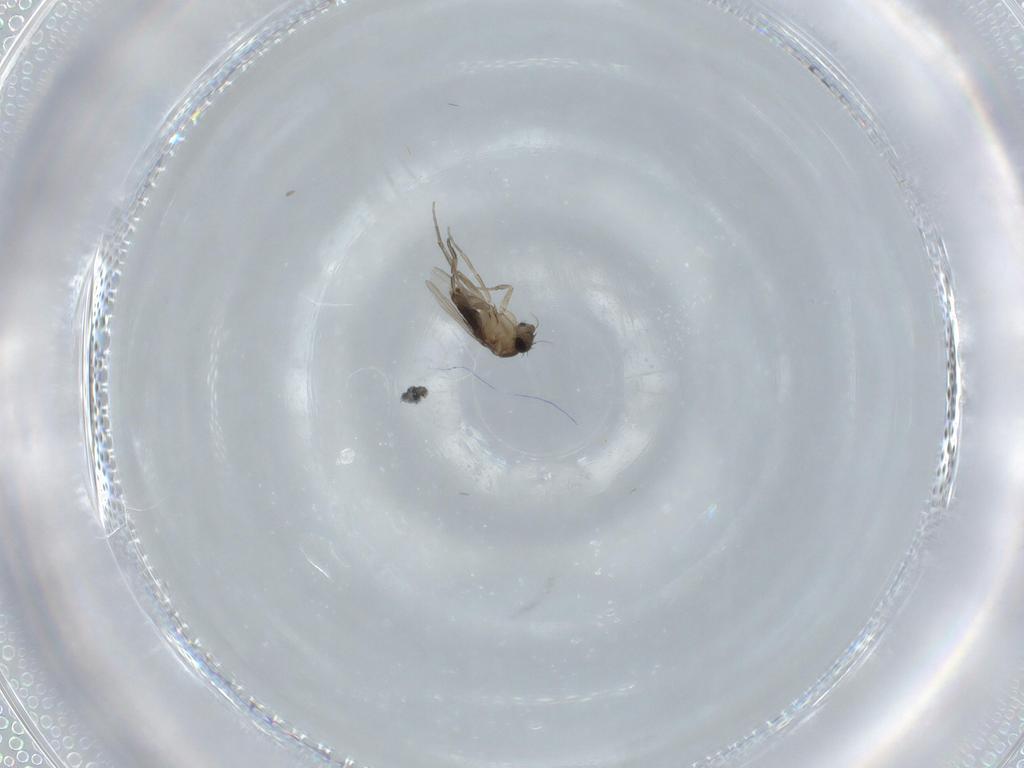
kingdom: Animalia
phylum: Arthropoda
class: Insecta
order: Diptera
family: Phoridae
